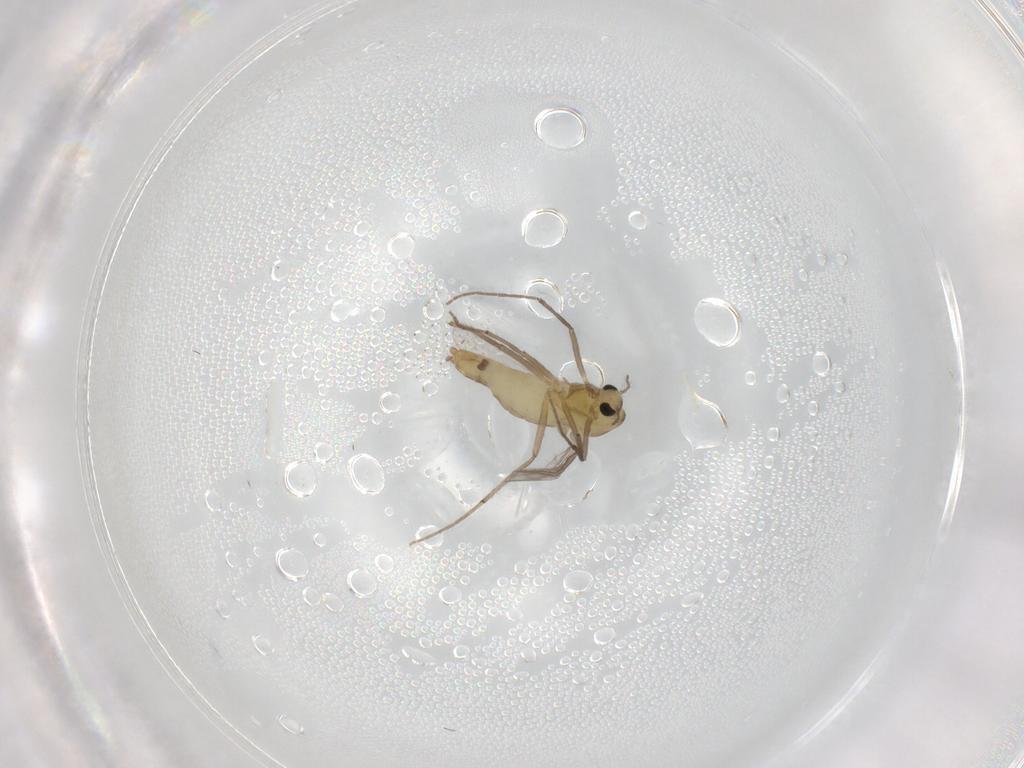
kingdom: Animalia
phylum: Arthropoda
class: Insecta
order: Diptera
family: Chironomidae
